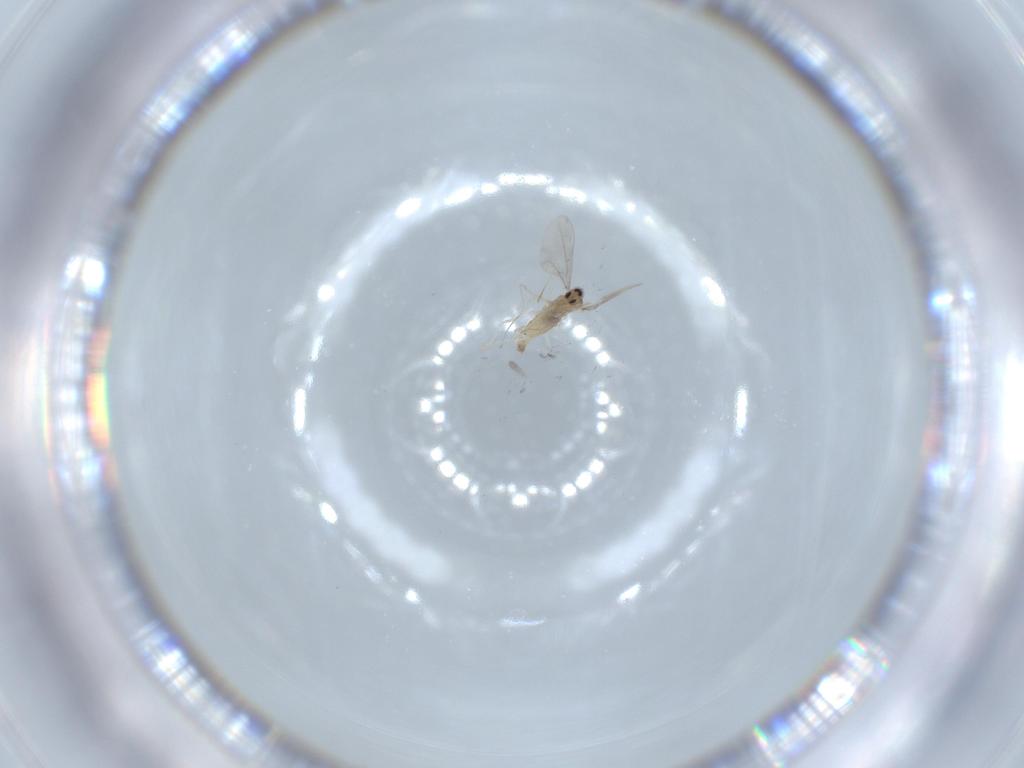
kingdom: Animalia
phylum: Arthropoda
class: Insecta
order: Diptera
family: Cecidomyiidae
